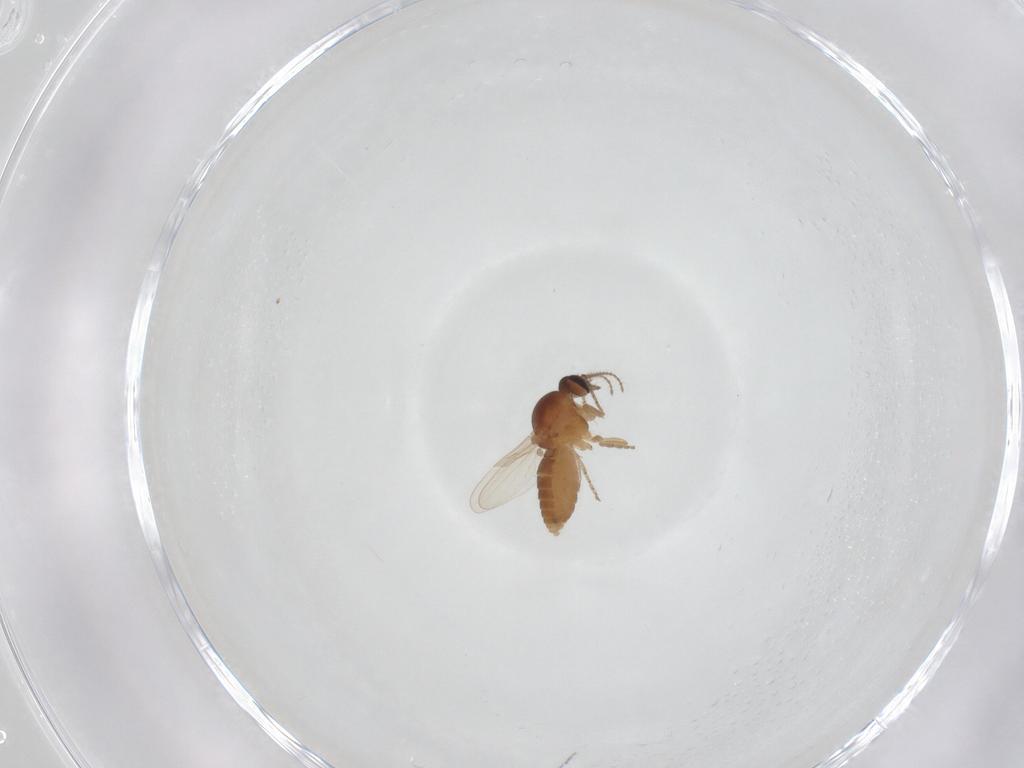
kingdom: Animalia
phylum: Arthropoda
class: Insecta
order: Diptera
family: Ceratopogonidae
